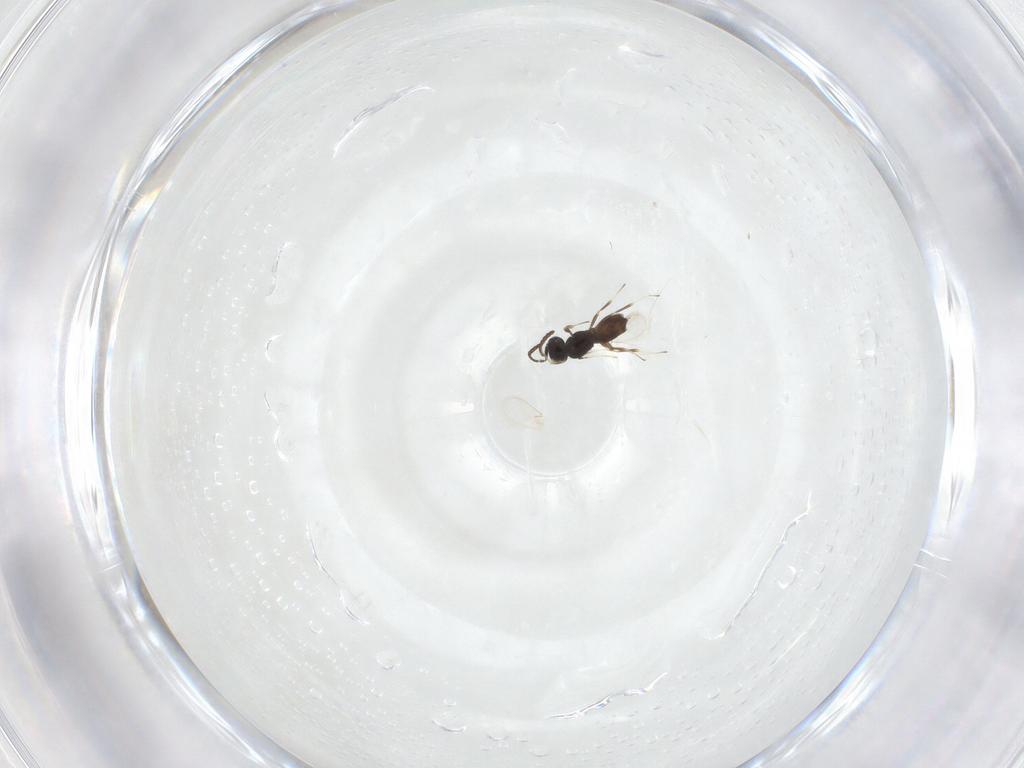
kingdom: Animalia
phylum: Arthropoda
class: Insecta
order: Hymenoptera
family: Scelionidae
